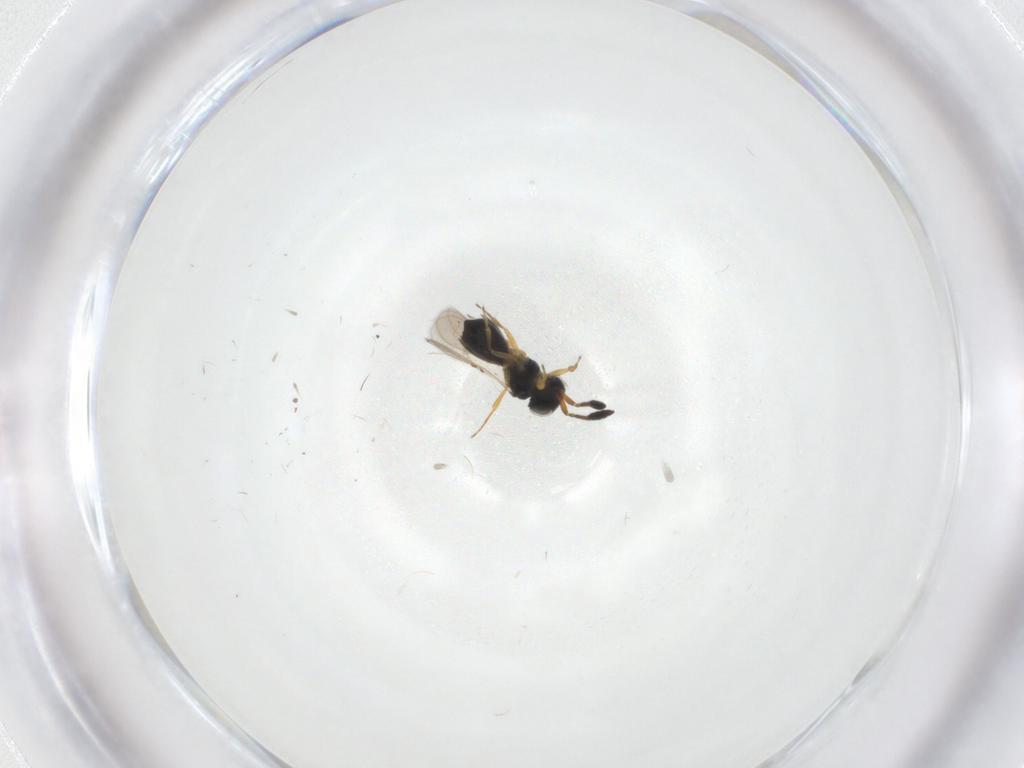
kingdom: Animalia
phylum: Arthropoda
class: Insecta
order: Hymenoptera
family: Scelionidae
